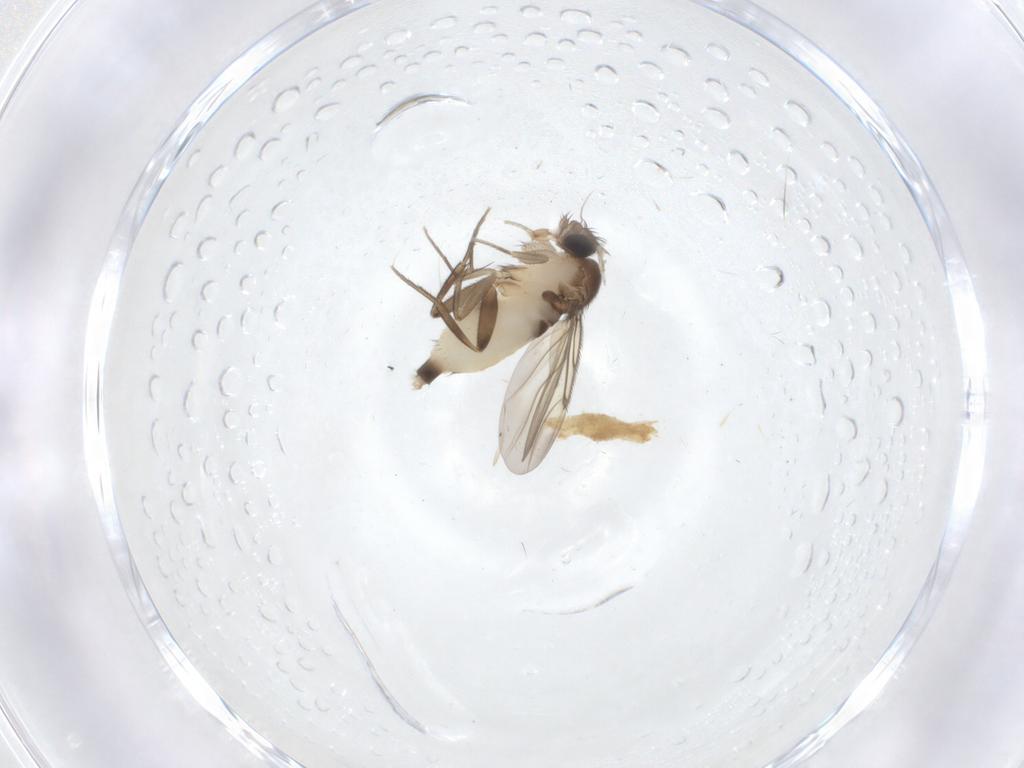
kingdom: Animalia
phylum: Arthropoda
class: Insecta
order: Diptera
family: Phoridae
